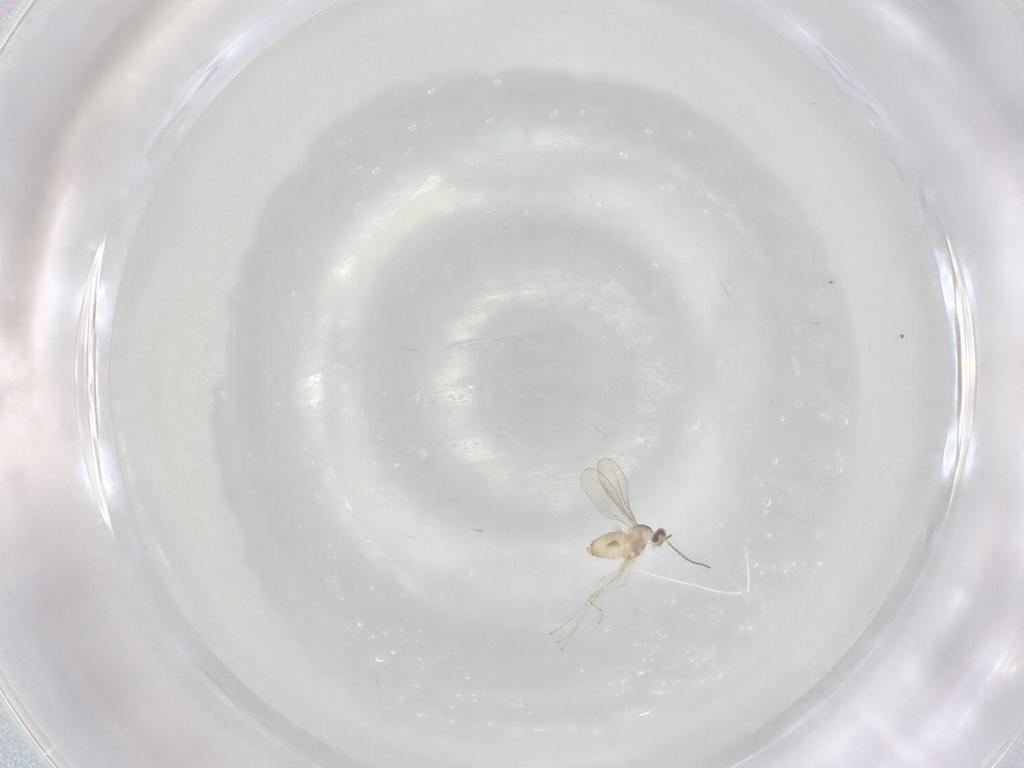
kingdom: Animalia
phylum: Arthropoda
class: Insecta
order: Diptera
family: Cecidomyiidae
